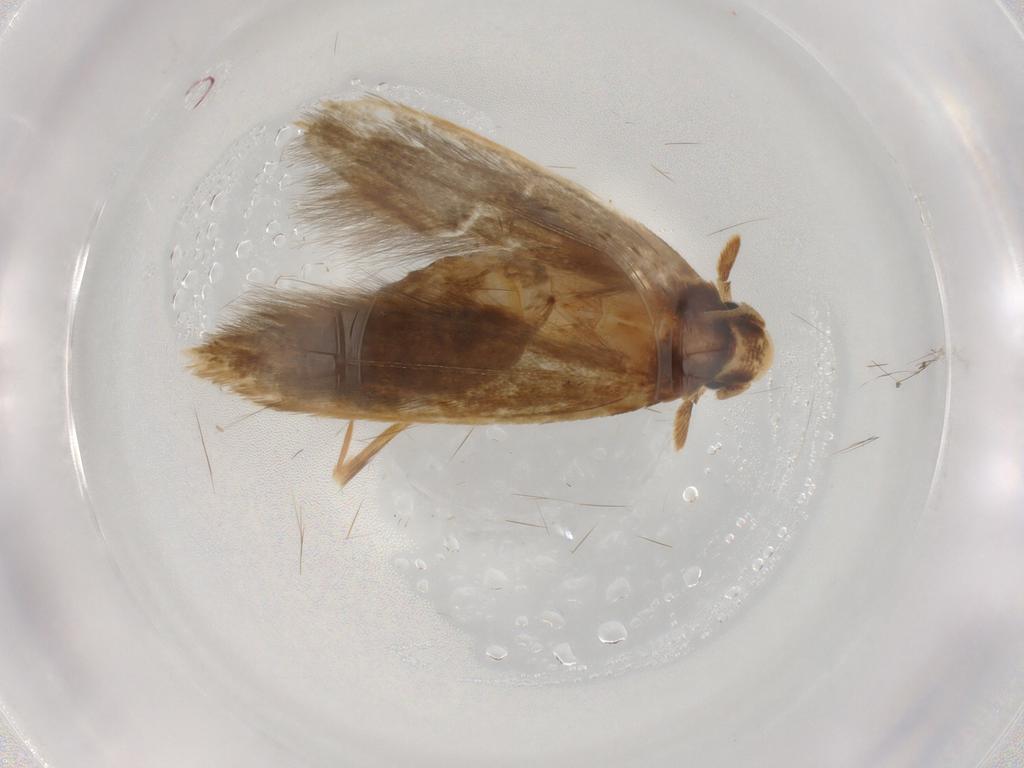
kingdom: Animalia
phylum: Arthropoda
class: Insecta
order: Lepidoptera
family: Tineidae
